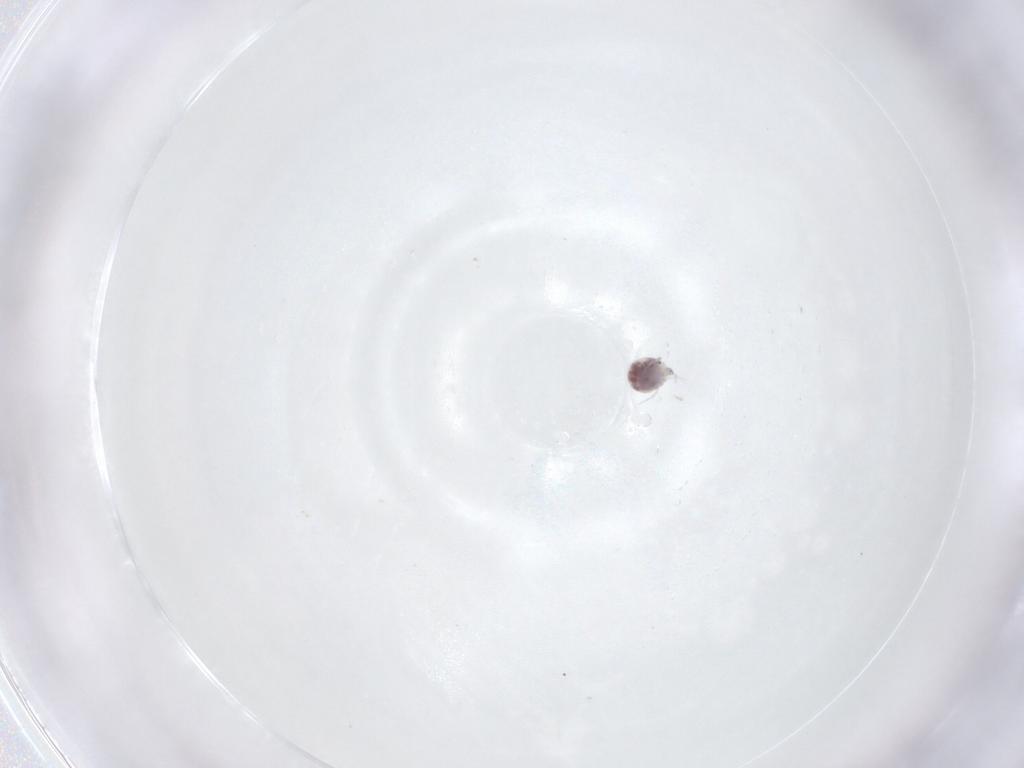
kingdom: Animalia
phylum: Arthropoda
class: Arachnida
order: Trombidiformes
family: Pionidae
